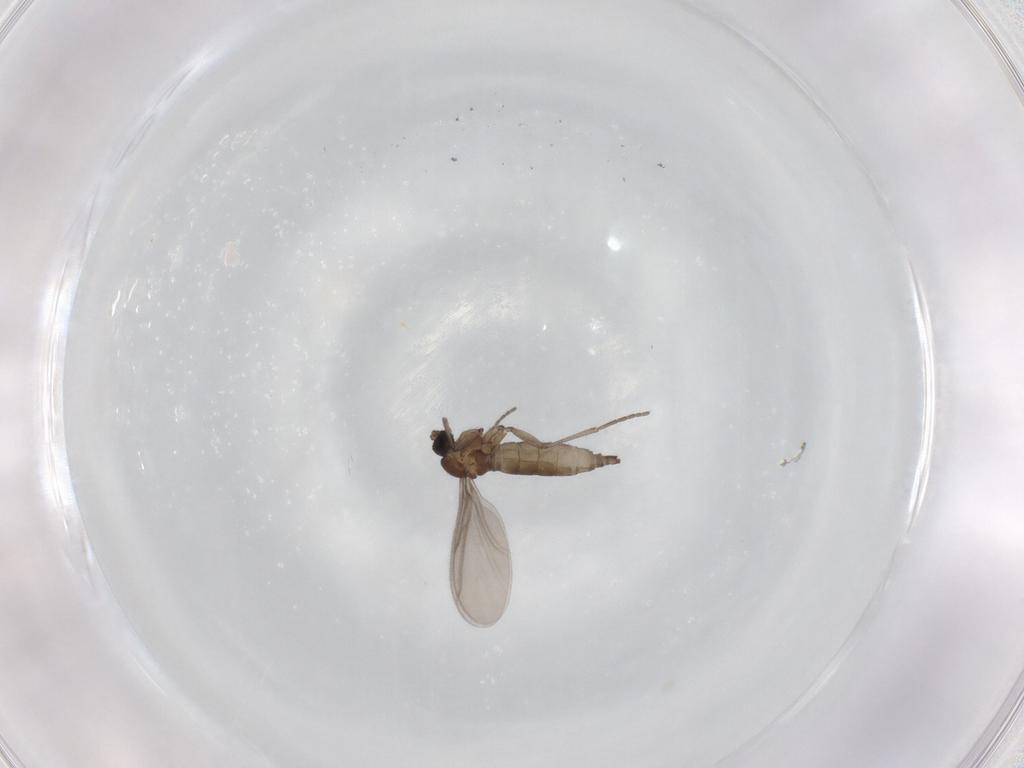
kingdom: Animalia
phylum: Arthropoda
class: Insecta
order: Diptera
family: Sciaridae
